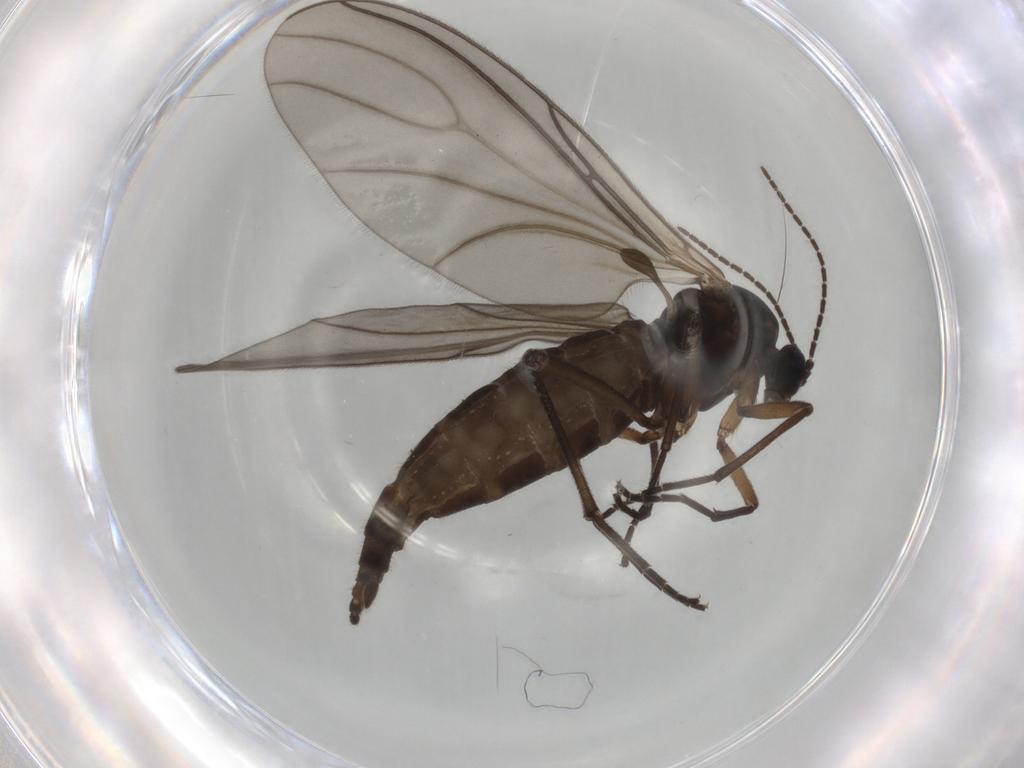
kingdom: Animalia
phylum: Arthropoda
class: Insecta
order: Diptera
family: Sciaridae
